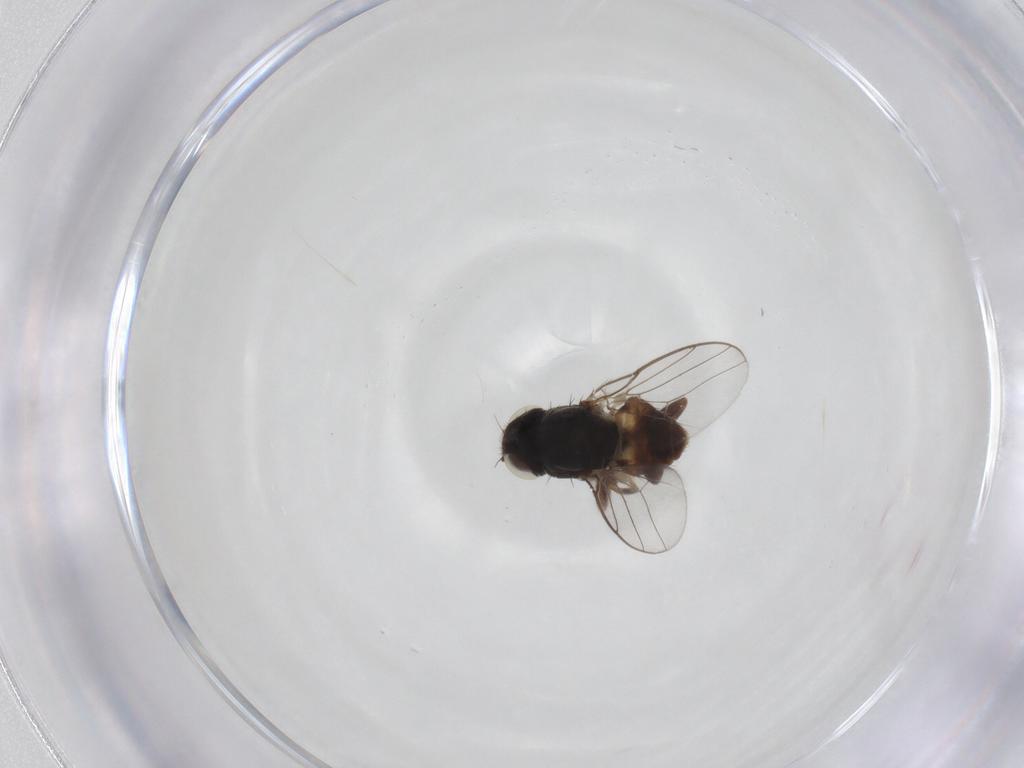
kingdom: Animalia
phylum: Arthropoda
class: Insecta
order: Diptera
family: Chloropidae
